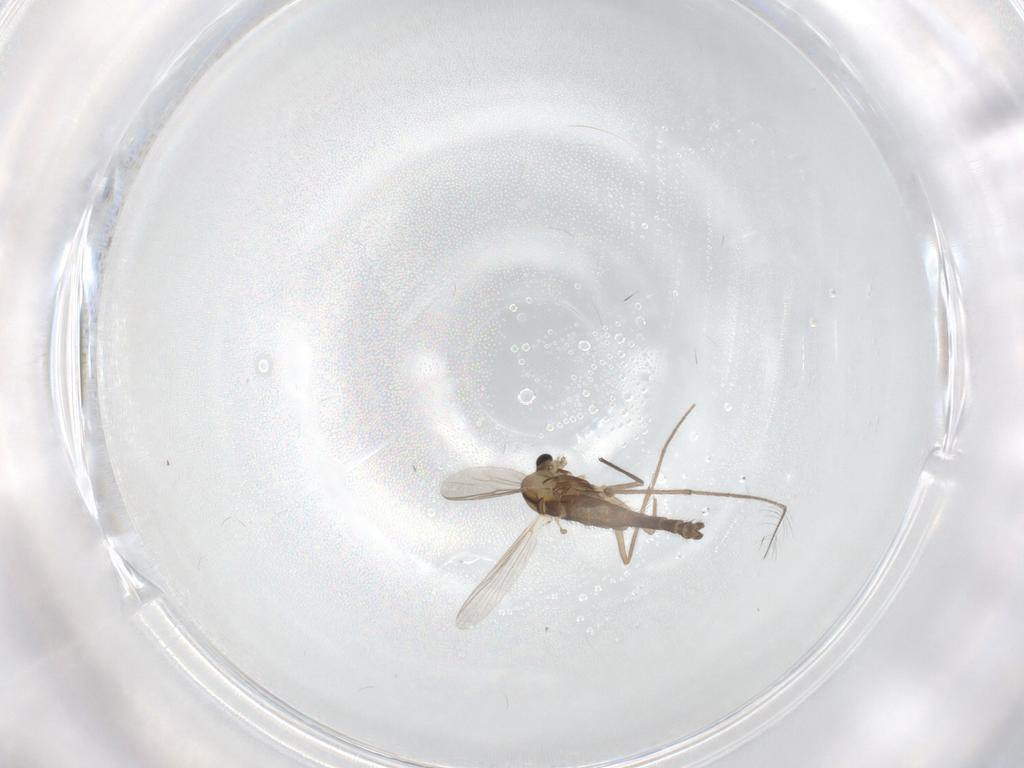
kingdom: Animalia
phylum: Arthropoda
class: Insecta
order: Diptera
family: Chironomidae
